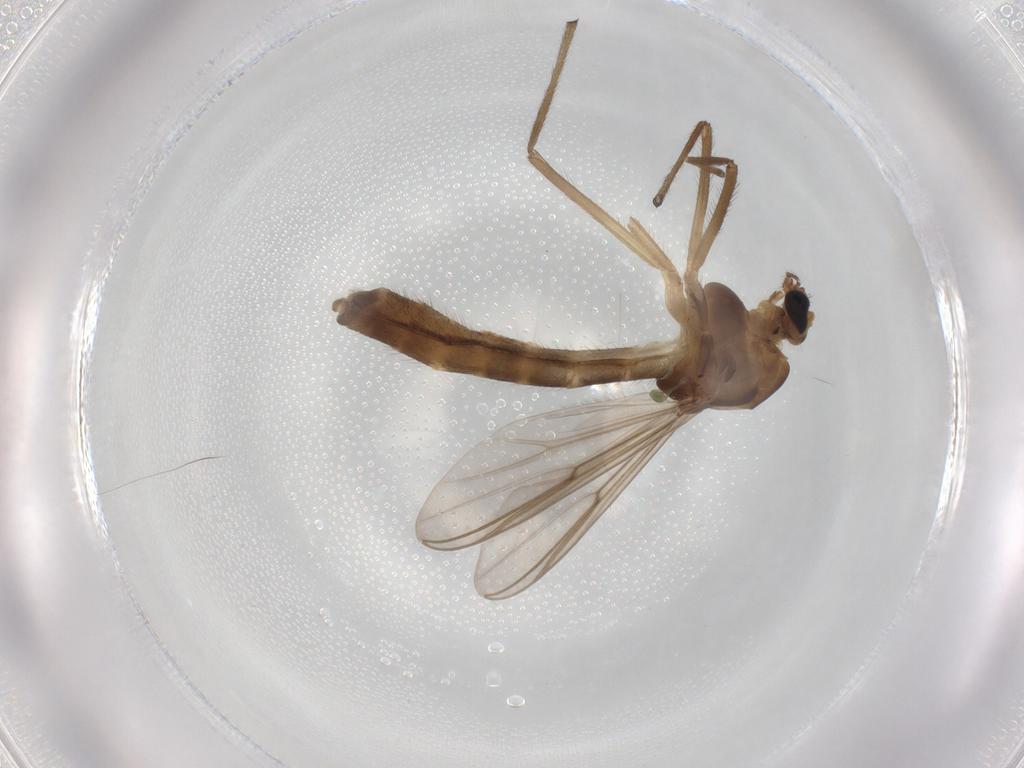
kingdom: Animalia
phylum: Arthropoda
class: Insecta
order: Diptera
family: Chironomidae
